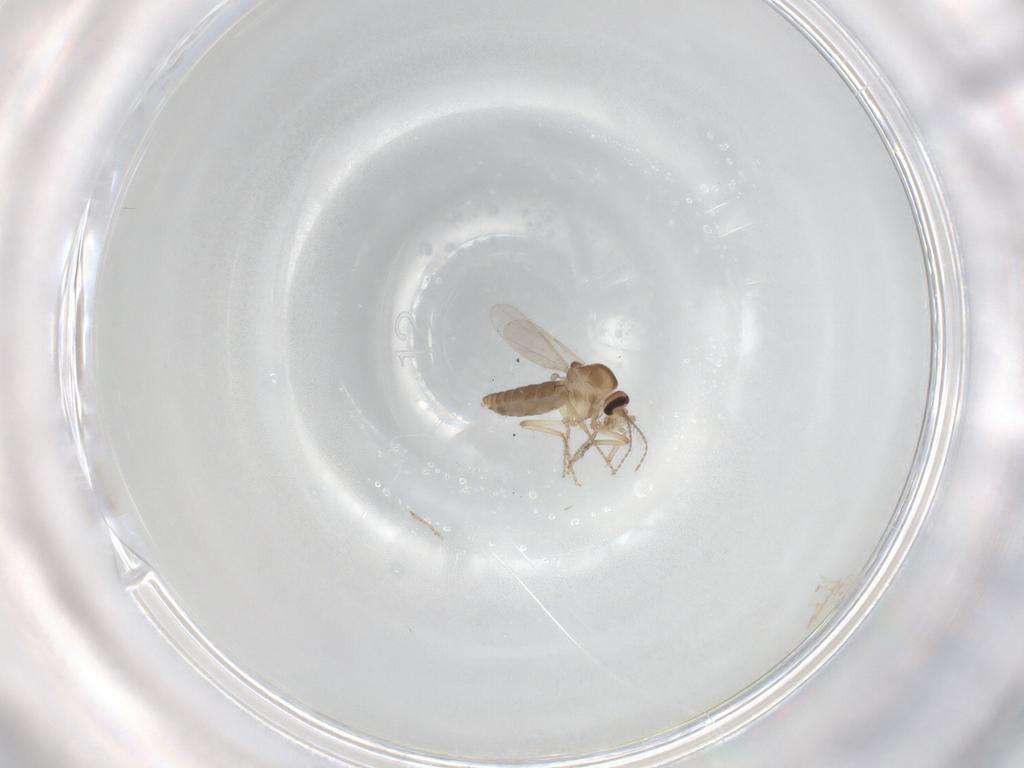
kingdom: Animalia
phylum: Arthropoda
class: Insecta
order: Diptera
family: Ceratopogonidae
